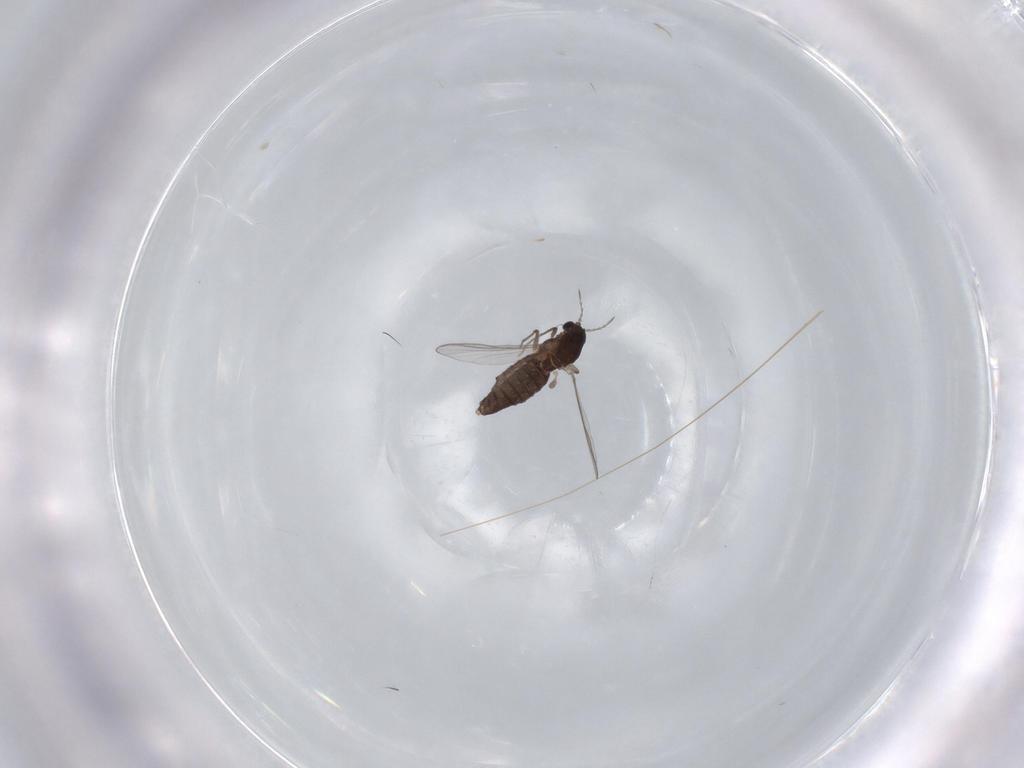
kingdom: Animalia
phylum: Arthropoda
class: Insecta
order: Diptera
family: Chironomidae
